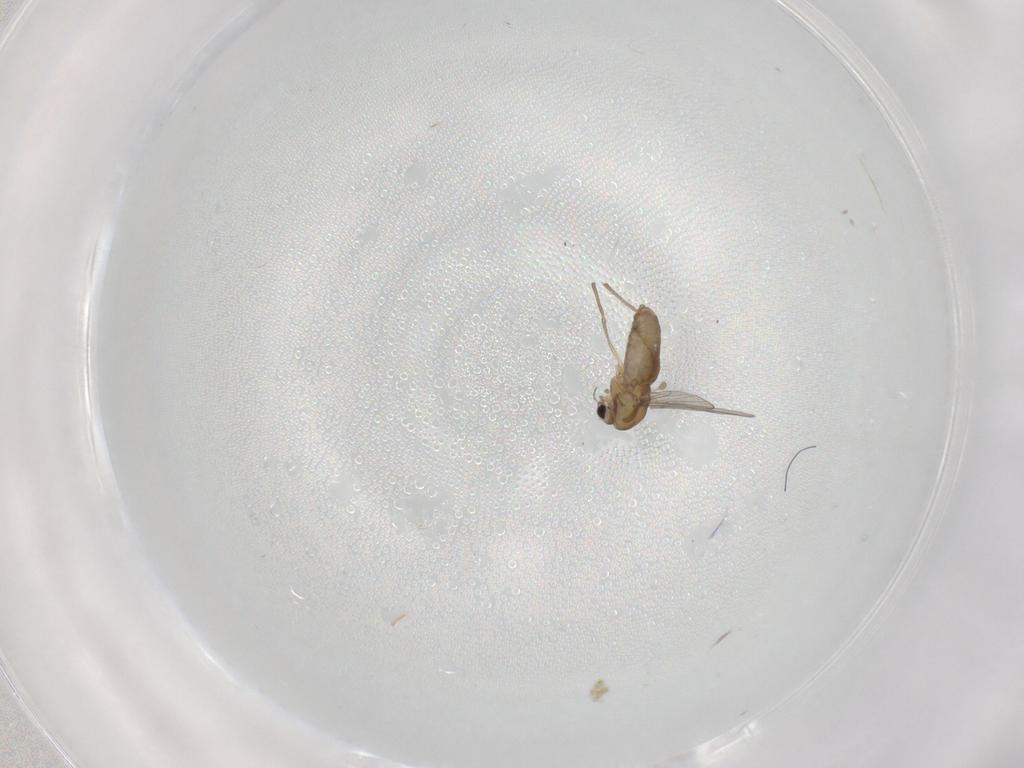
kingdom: Animalia
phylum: Arthropoda
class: Insecta
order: Diptera
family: Chironomidae
